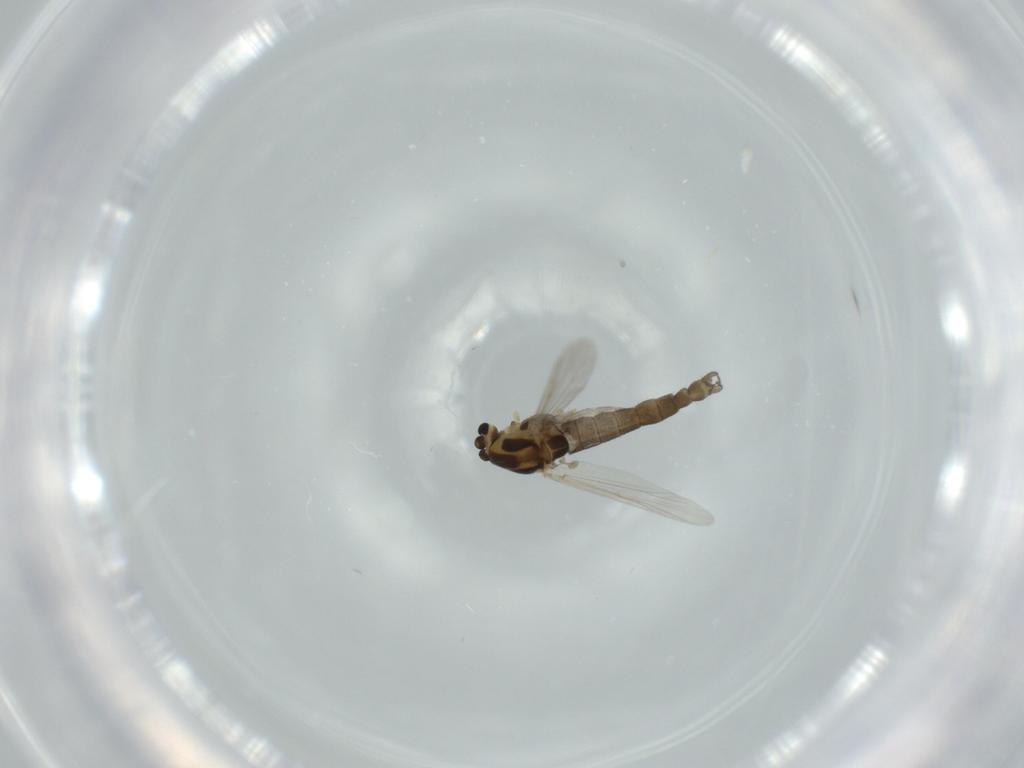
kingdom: Animalia
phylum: Arthropoda
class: Insecta
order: Diptera
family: Chironomidae
